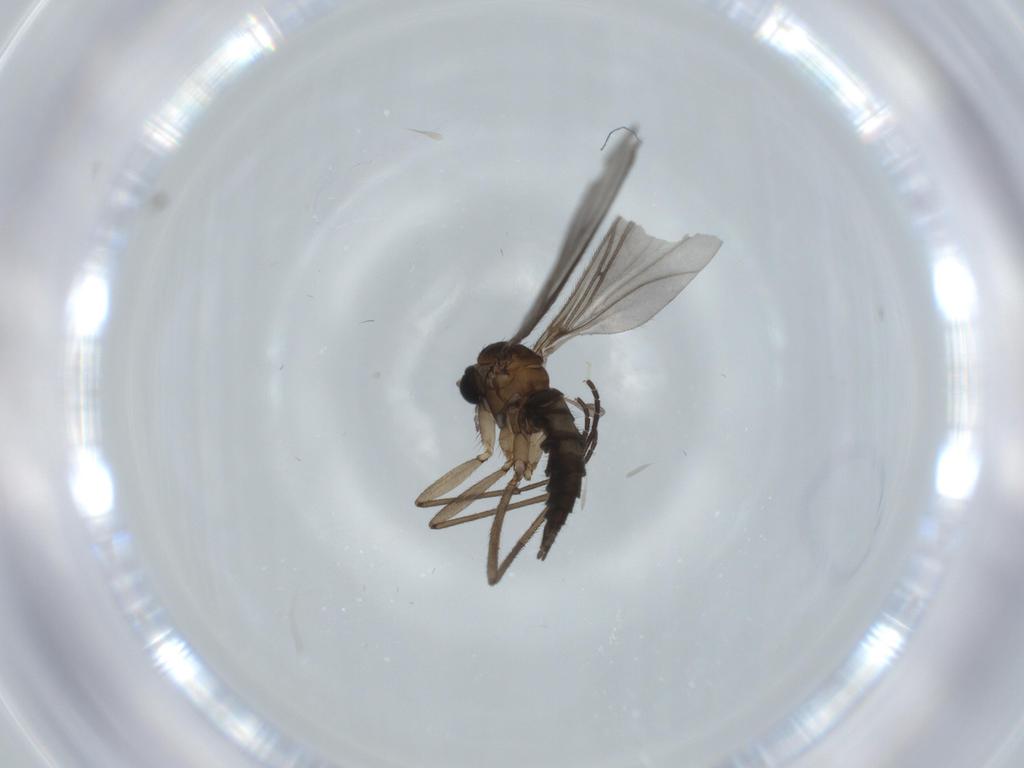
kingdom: Animalia
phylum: Arthropoda
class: Insecta
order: Diptera
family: Sciaridae
